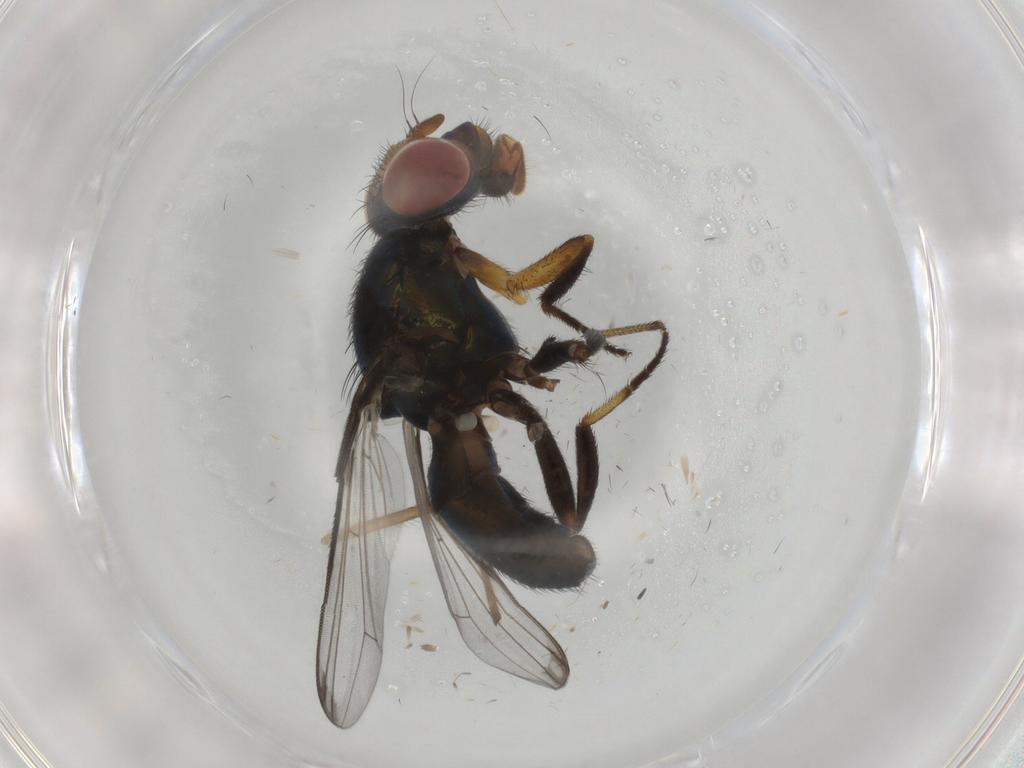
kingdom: Animalia
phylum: Arthropoda
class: Insecta
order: Diptera
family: Ulidiidae
